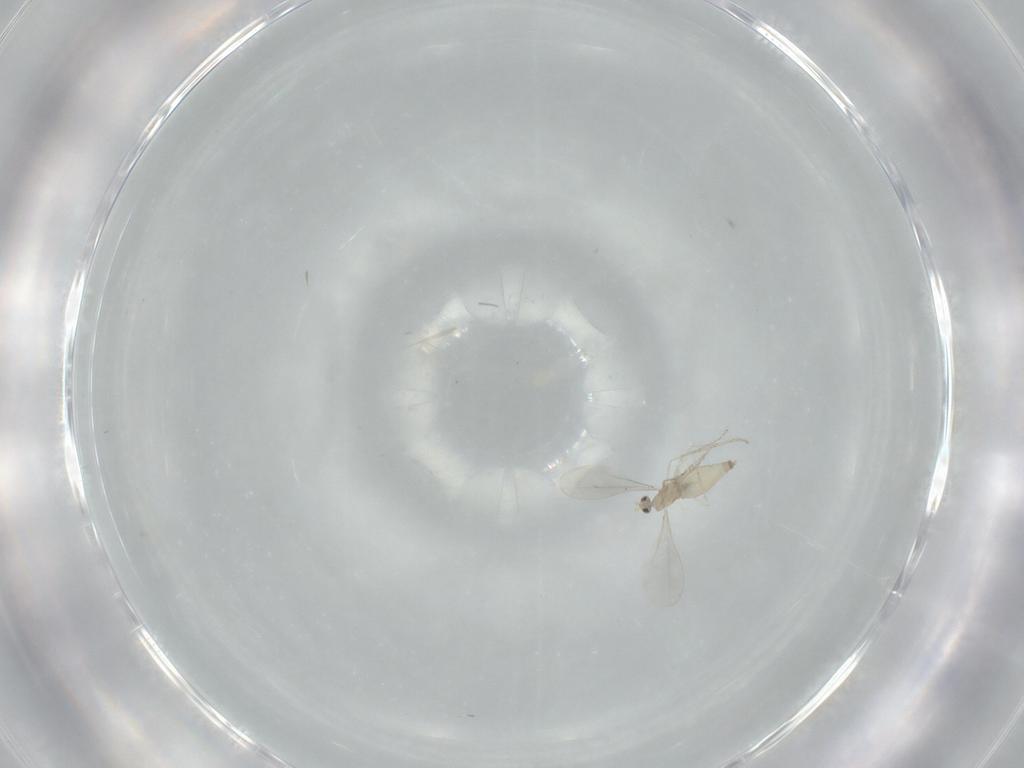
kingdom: Animalia
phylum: Arthropoda
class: Insecta
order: Diptera
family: Cecidomyiidae
